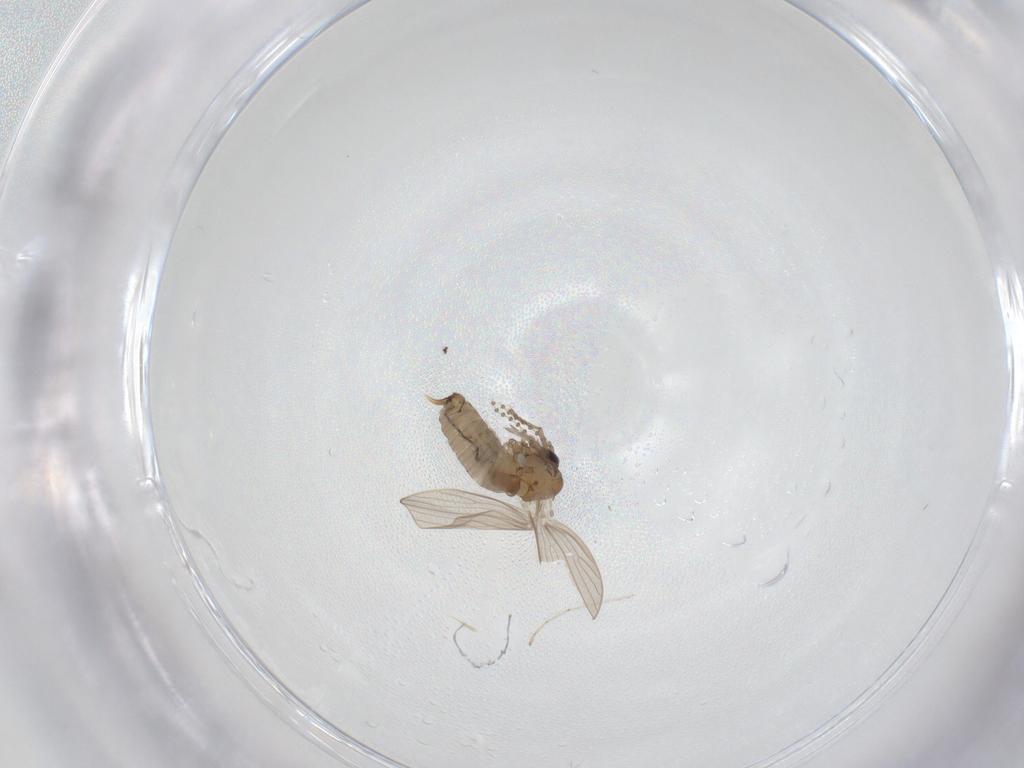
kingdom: Animalia
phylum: Arthropoda
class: Insecta
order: Diptera
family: Psychodidae
